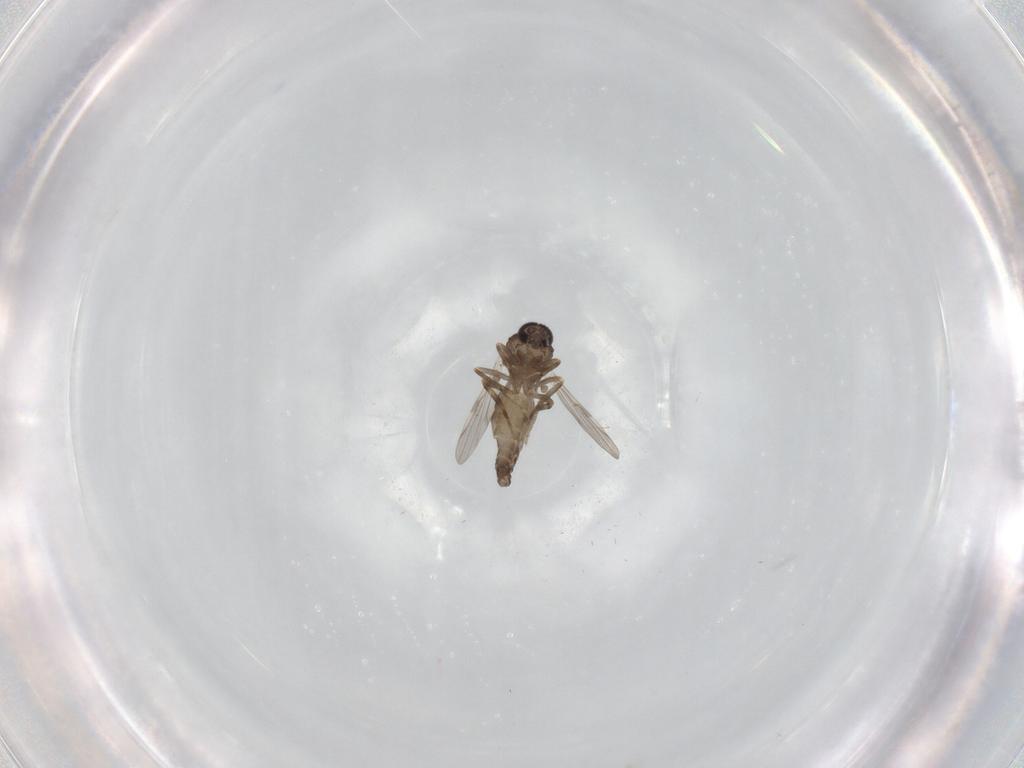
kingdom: Animalia
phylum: Arthropoda
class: Insecta
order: Diptera
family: Ceratopogonidae
